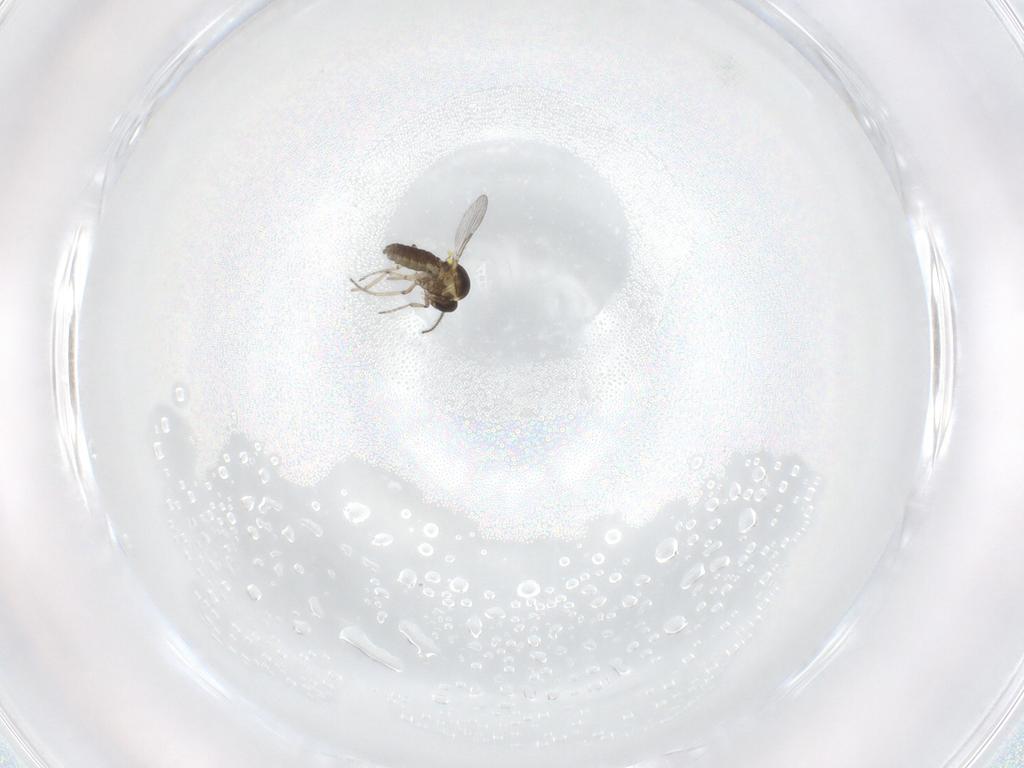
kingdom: Animalia
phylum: Arthropoda
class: Insecta
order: Diptera
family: Ceratopogonidae
